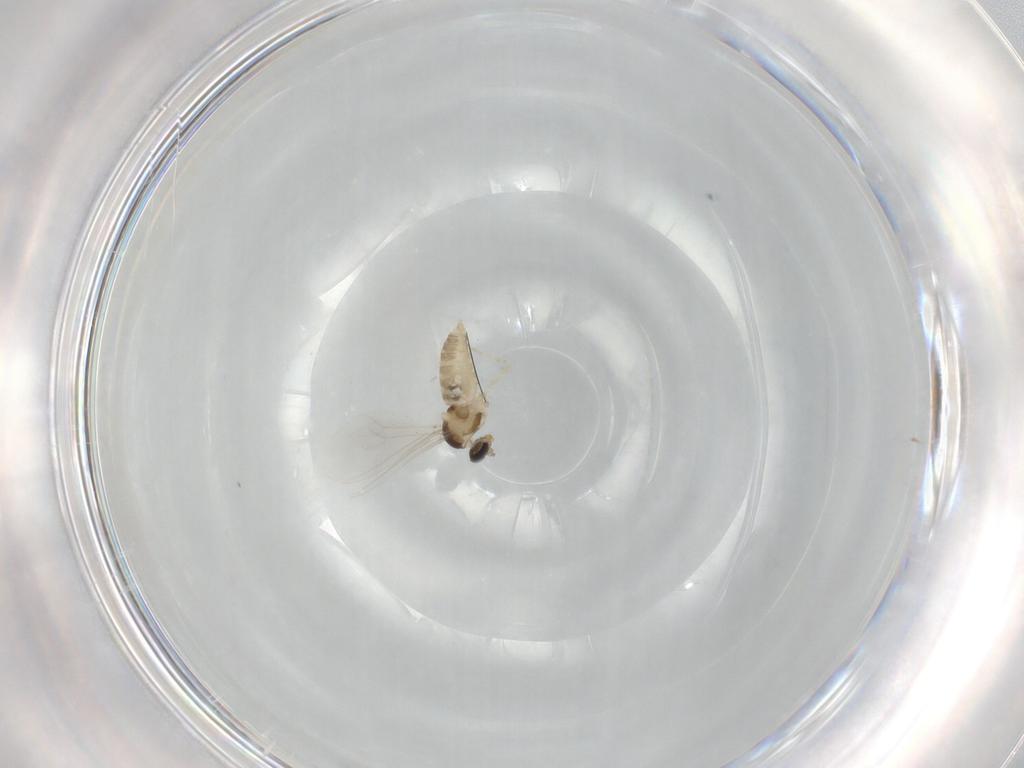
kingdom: Animalia
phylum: Arthropoda
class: Insecta
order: Diptera
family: Cecidomyiidae
